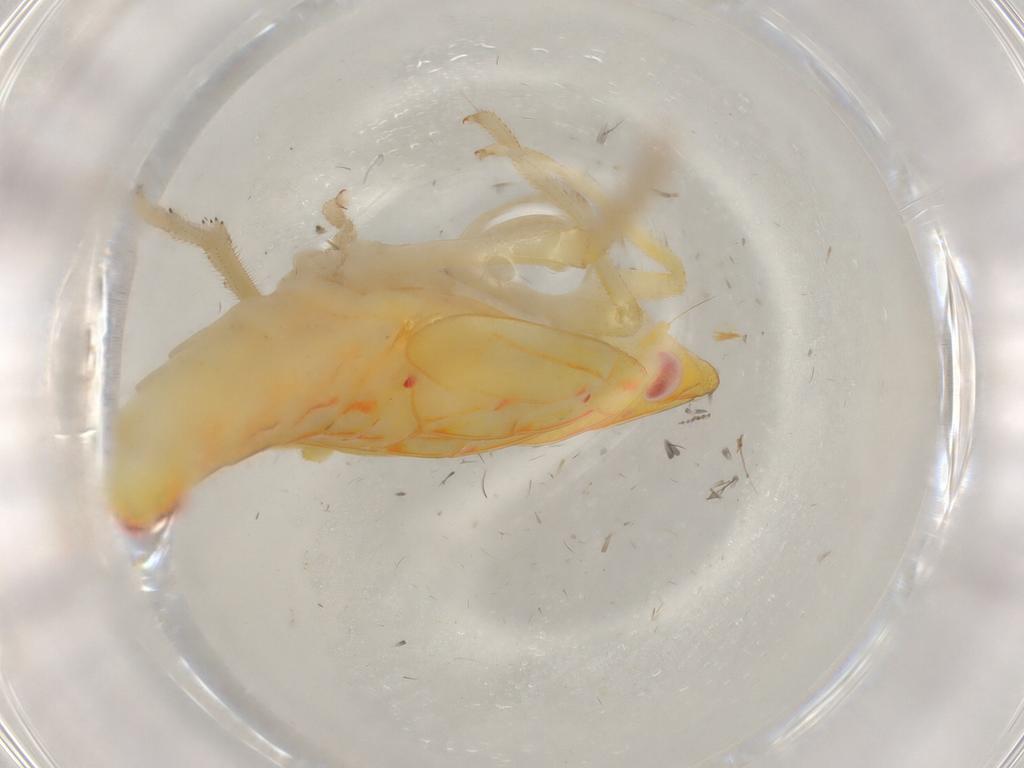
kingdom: Animalia
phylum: Arthropoda
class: Insecta
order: Hemiptera
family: Tropiduchidae
